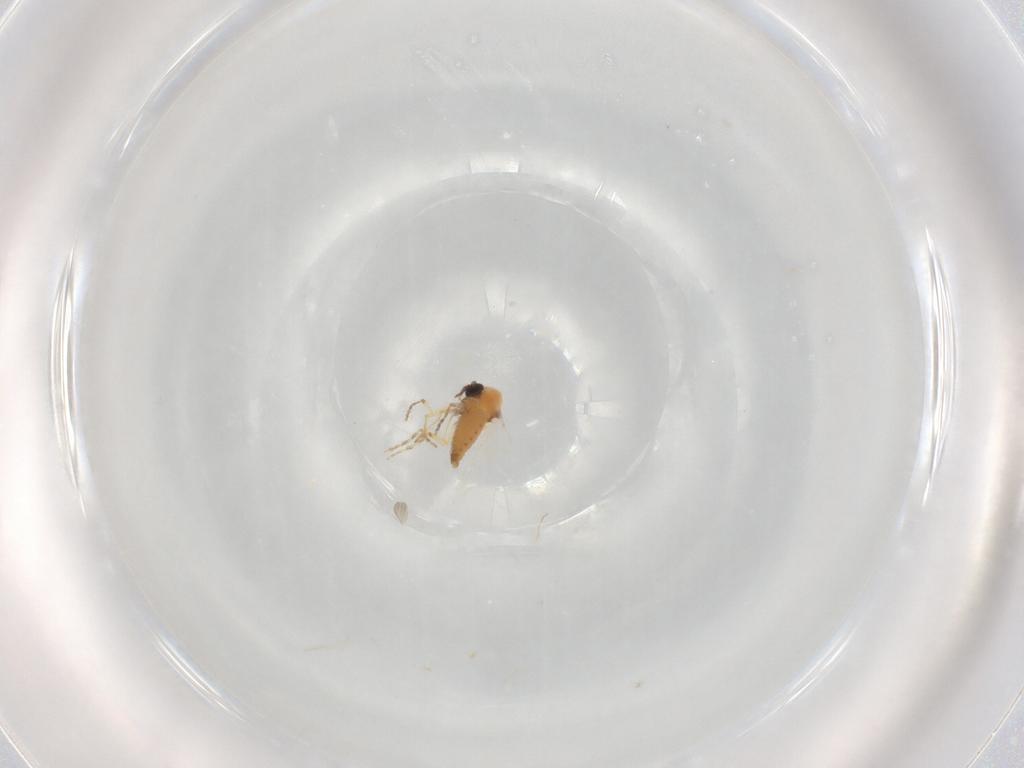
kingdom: Animalia
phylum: Arthropoda
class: Insecta
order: Diptera
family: Ceratopogonidae
